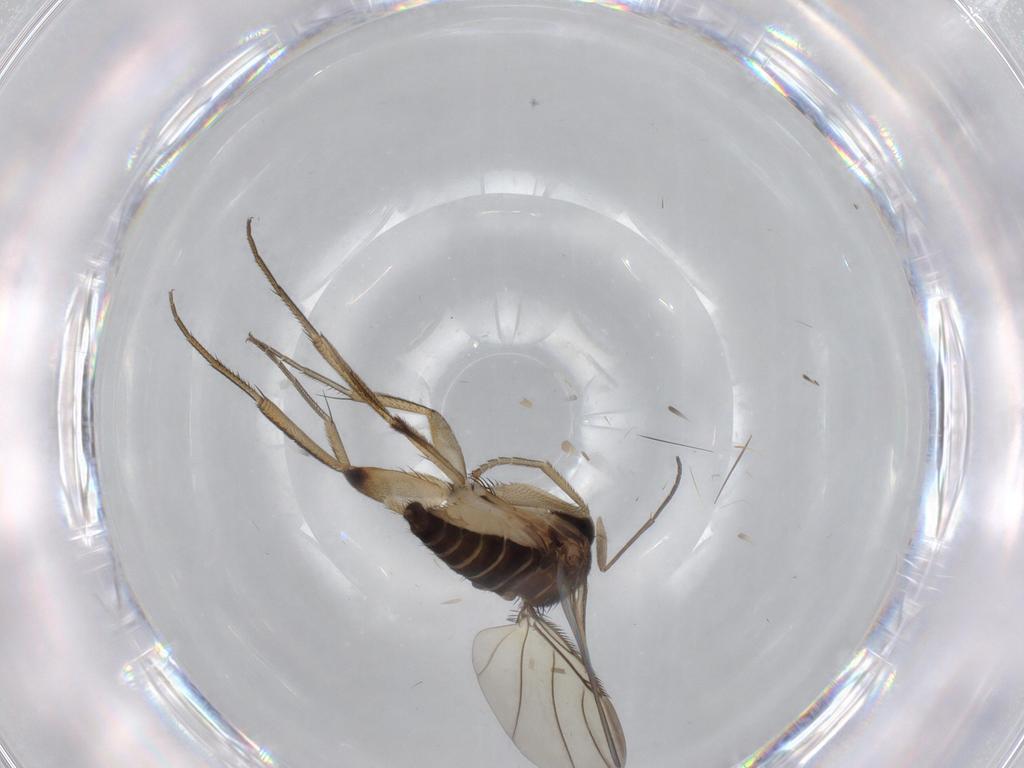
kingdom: Animalia
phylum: Arthropoda
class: Insecta
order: Diptera
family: Phoridae
